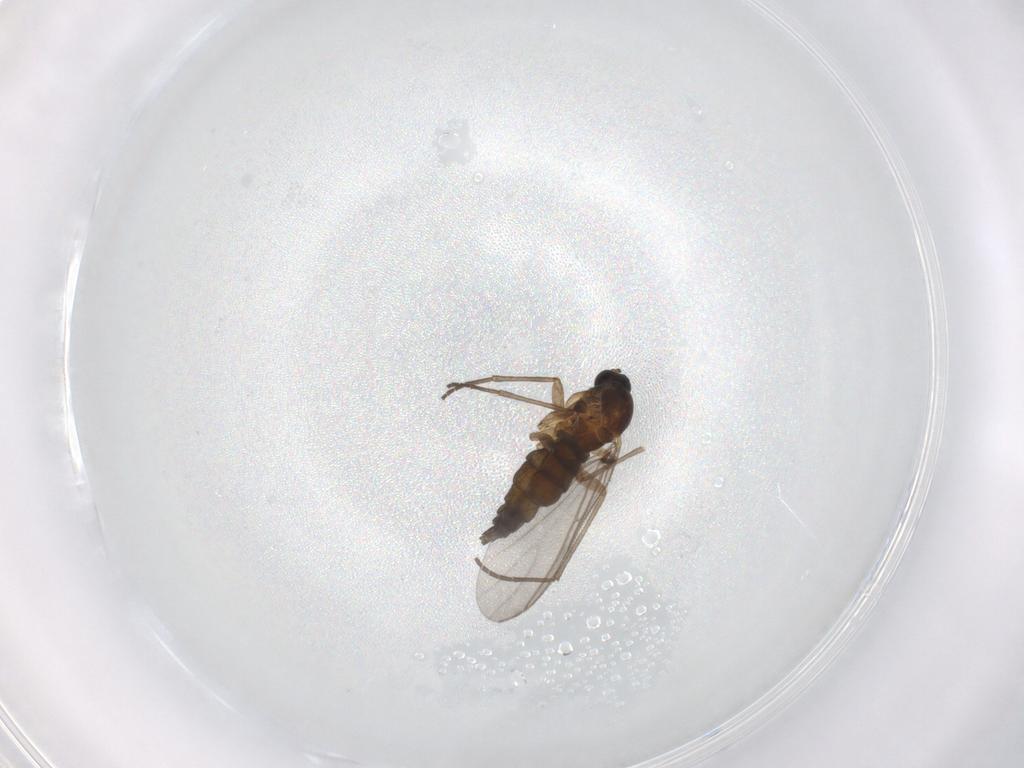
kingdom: Animalia
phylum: Arthropoda
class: Insecta
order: Diptera
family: Sciaridae
